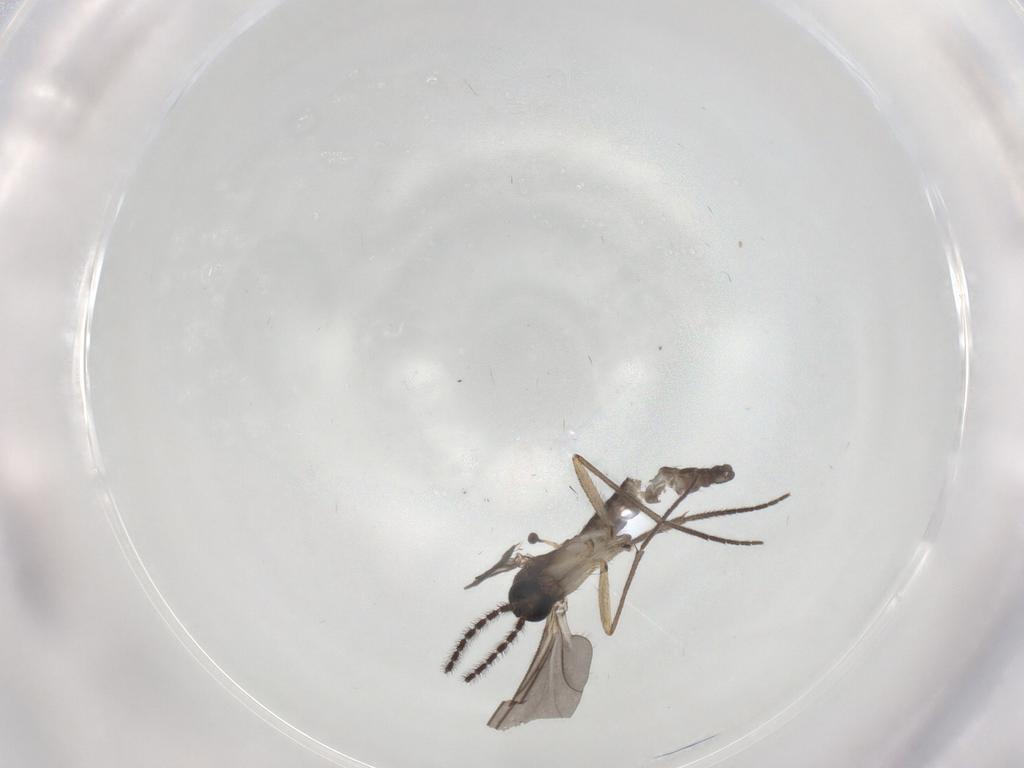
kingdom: Animalia
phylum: Arthropoda
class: Insecta
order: Diptera
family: Sciaridae
